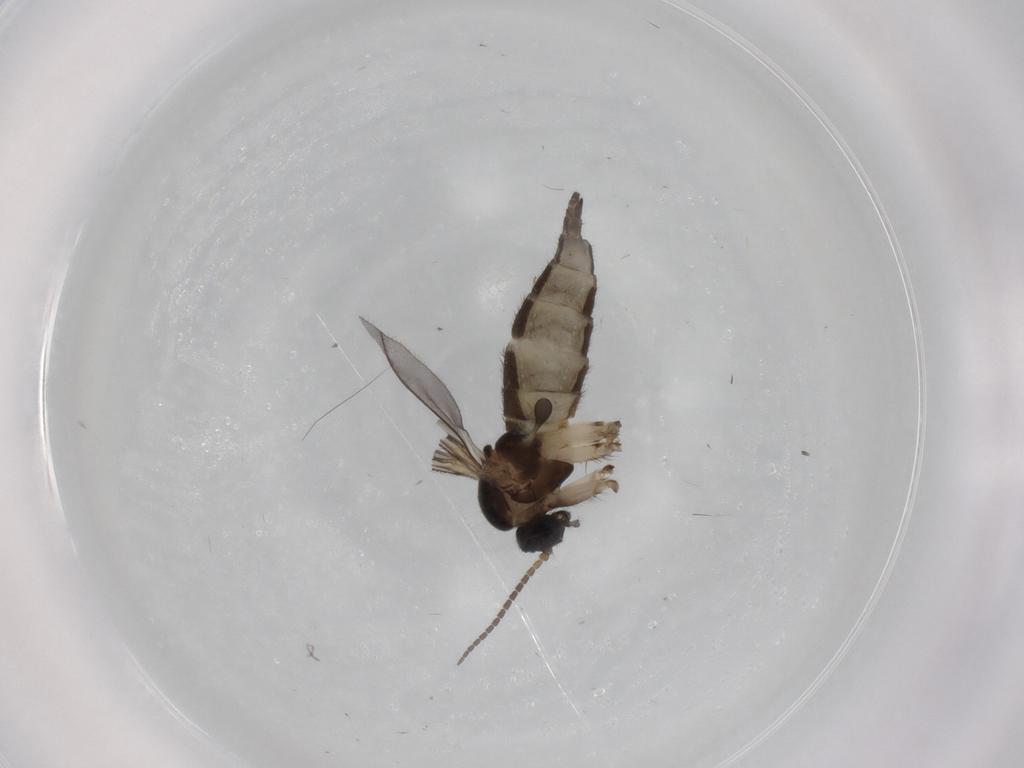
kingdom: Animalia
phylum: Arthropoda
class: Insecta
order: Diptera
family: Sciaridae
